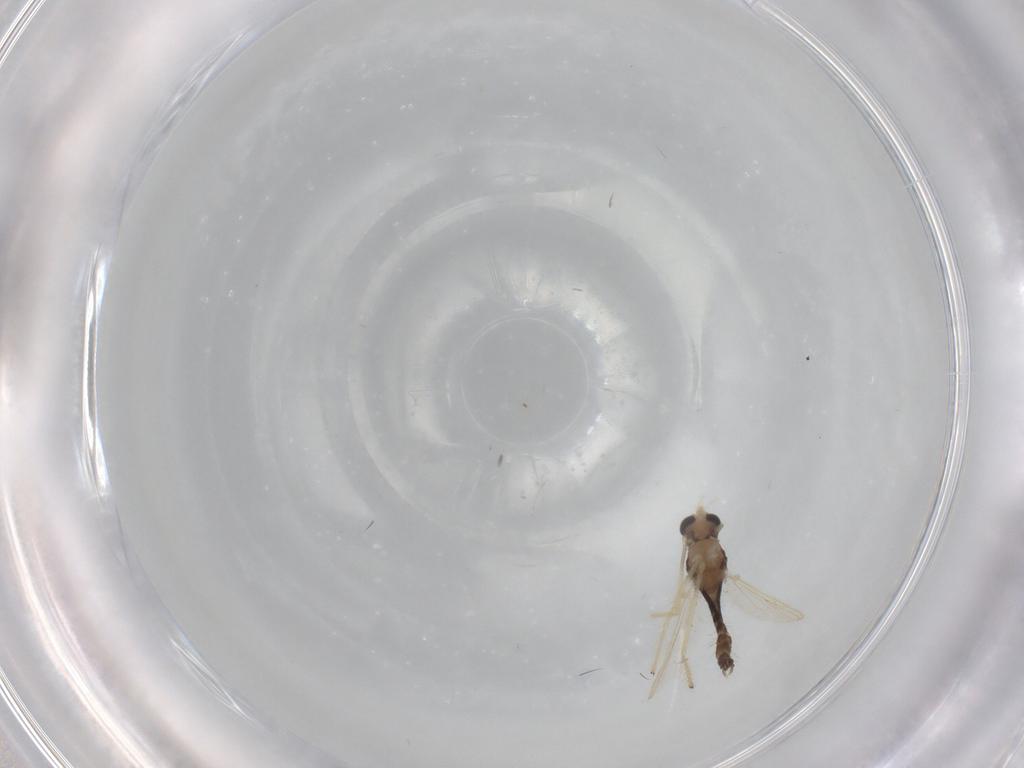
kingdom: Animalia
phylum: Arthropoda
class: Insecta
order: Diptera
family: Chironomidae
